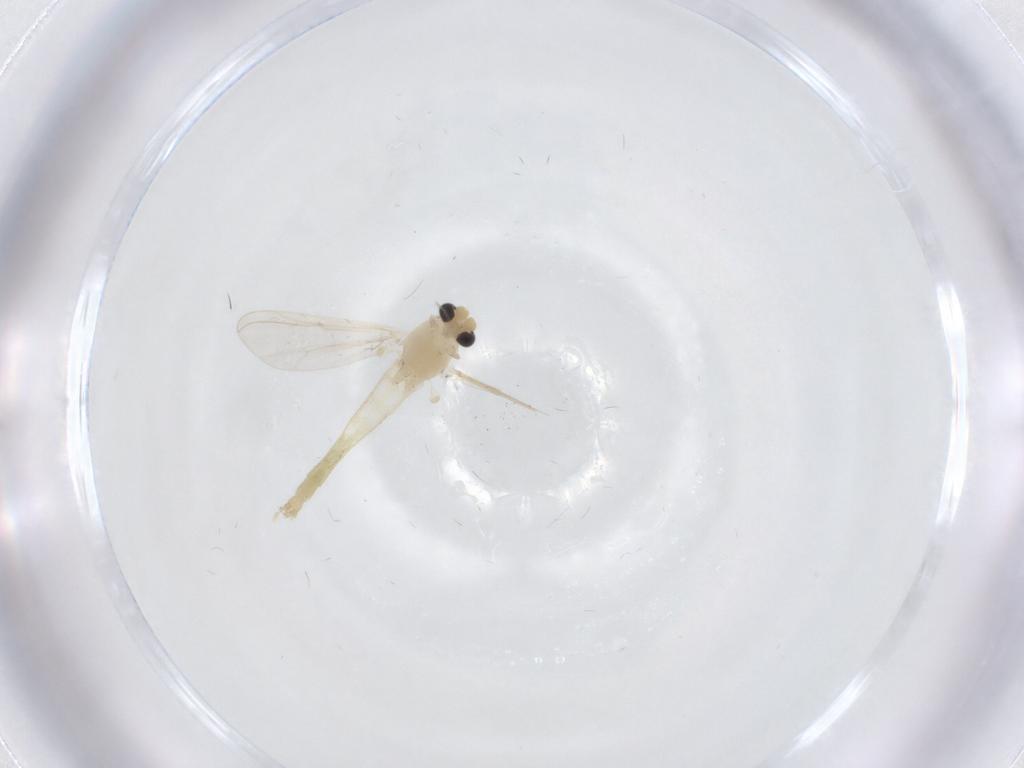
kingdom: Animalia
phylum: Arthropoda
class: Insecta
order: Diptera
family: Chironomidae
